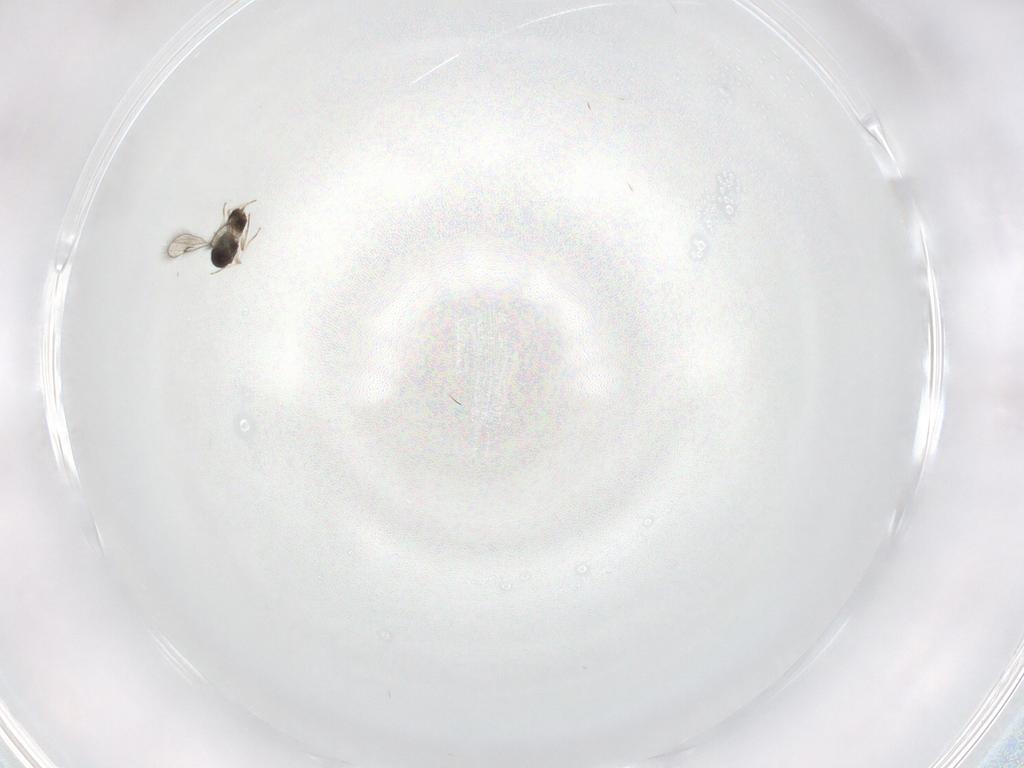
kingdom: Animalia
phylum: Arthropoda
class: Insecta
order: Hymenoptera
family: Eulophidae
